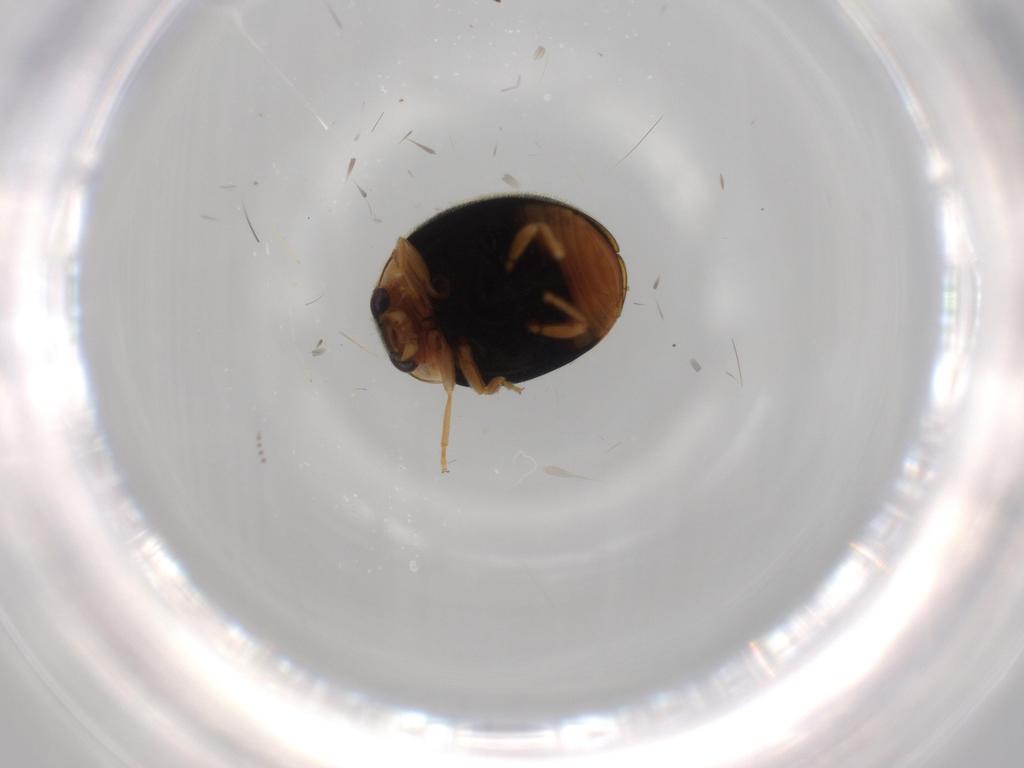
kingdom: Animalia
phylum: Arthropoda
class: Insecta
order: Coleoptera
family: Coccinellidae
